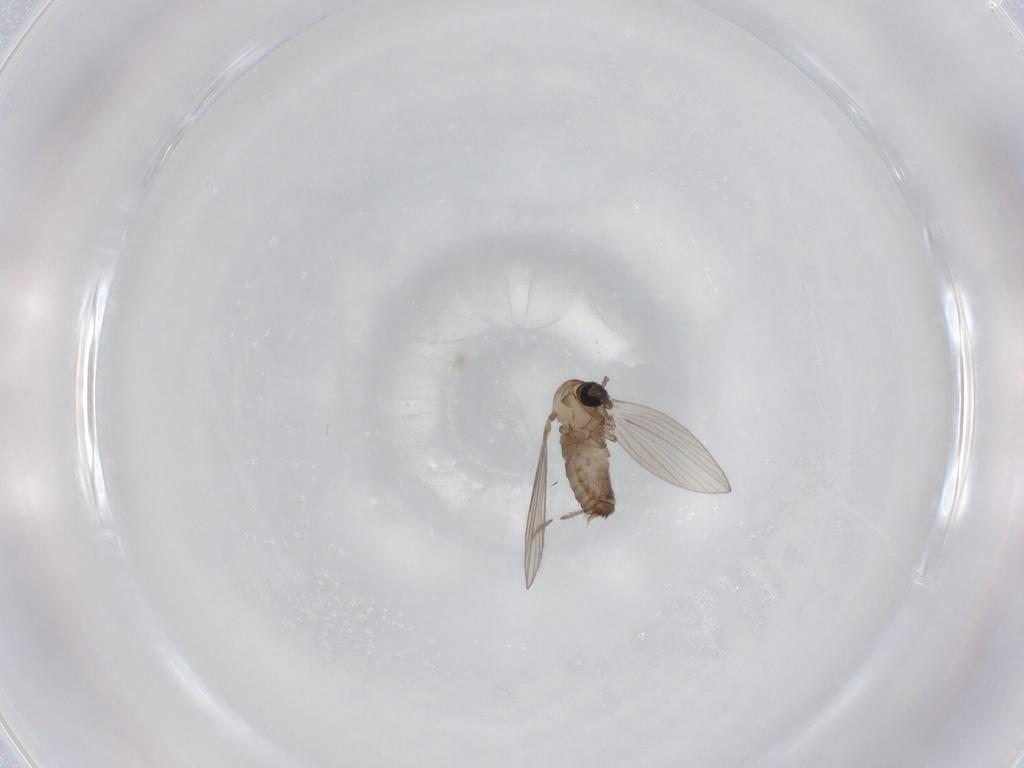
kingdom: Animalia
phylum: Arthropoda
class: Insecta
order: Diptera
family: Psychodidae
